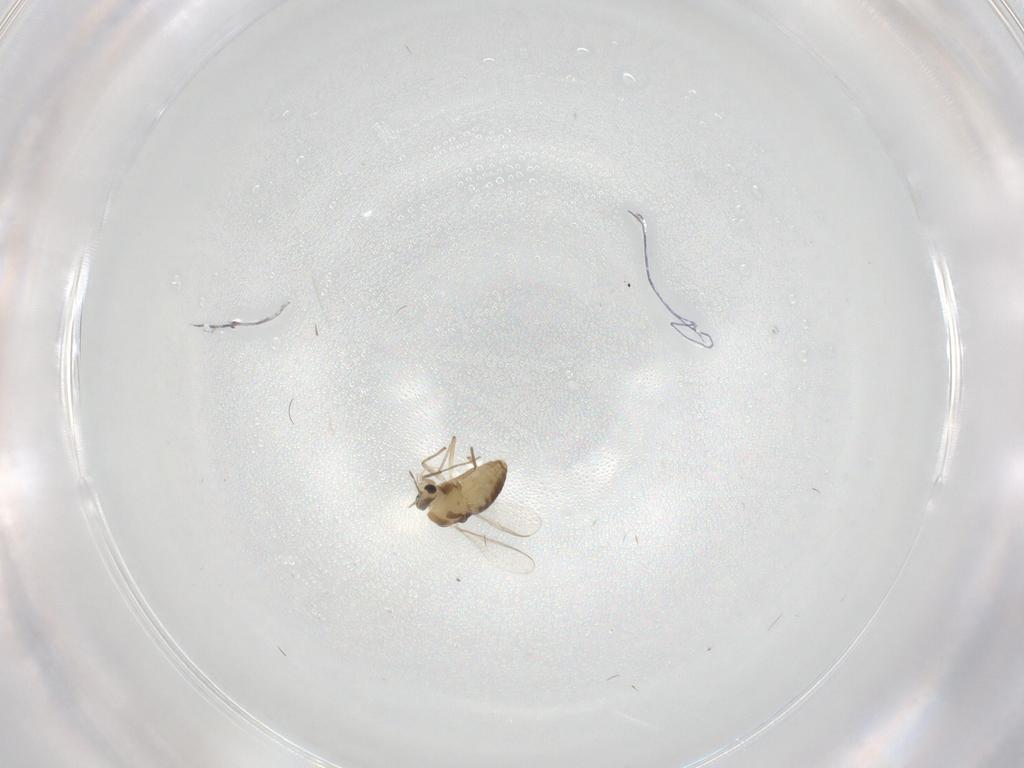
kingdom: Animalia
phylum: Arthropoda
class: Insecta
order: Diptera
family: Chironomidae
